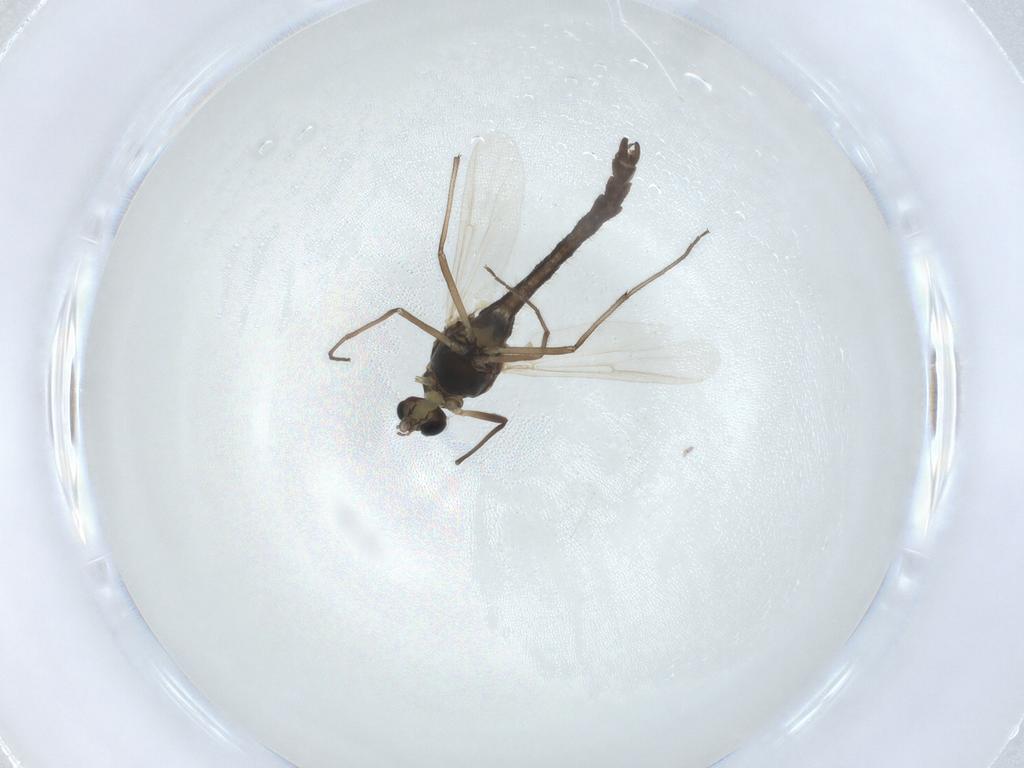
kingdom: Animalia
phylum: Arthropoda
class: Insecta
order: Diptera
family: Chironomidae
